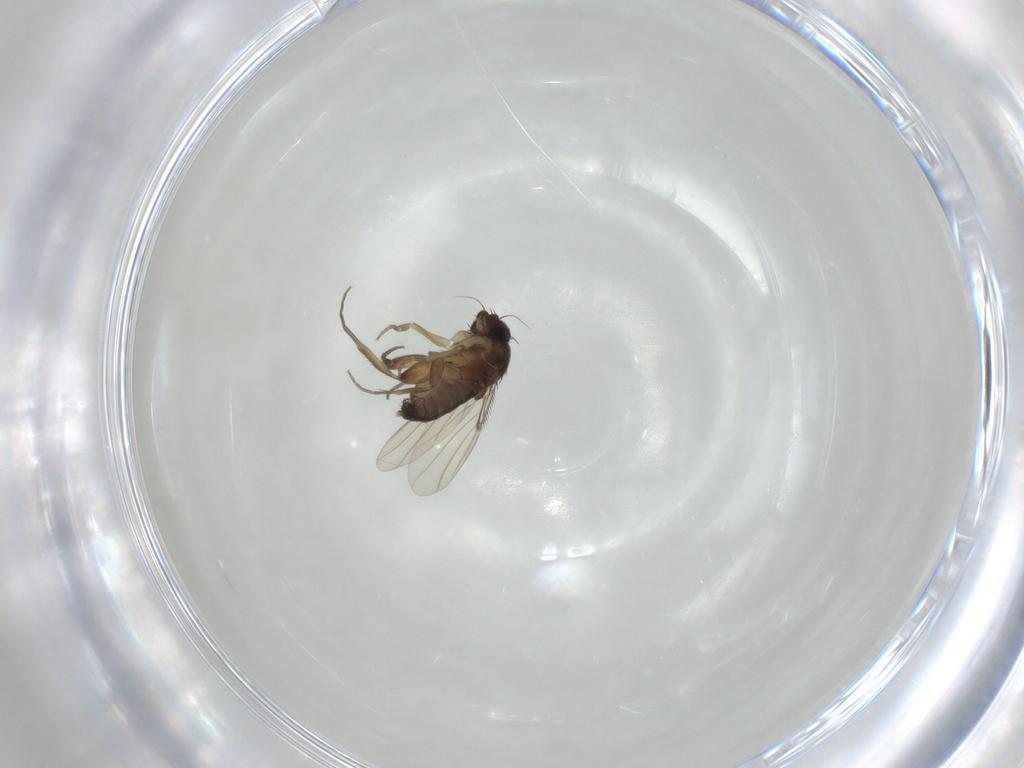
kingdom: Animalia
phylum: Arthropoda
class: Insecta
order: Diptera
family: Phoridae
